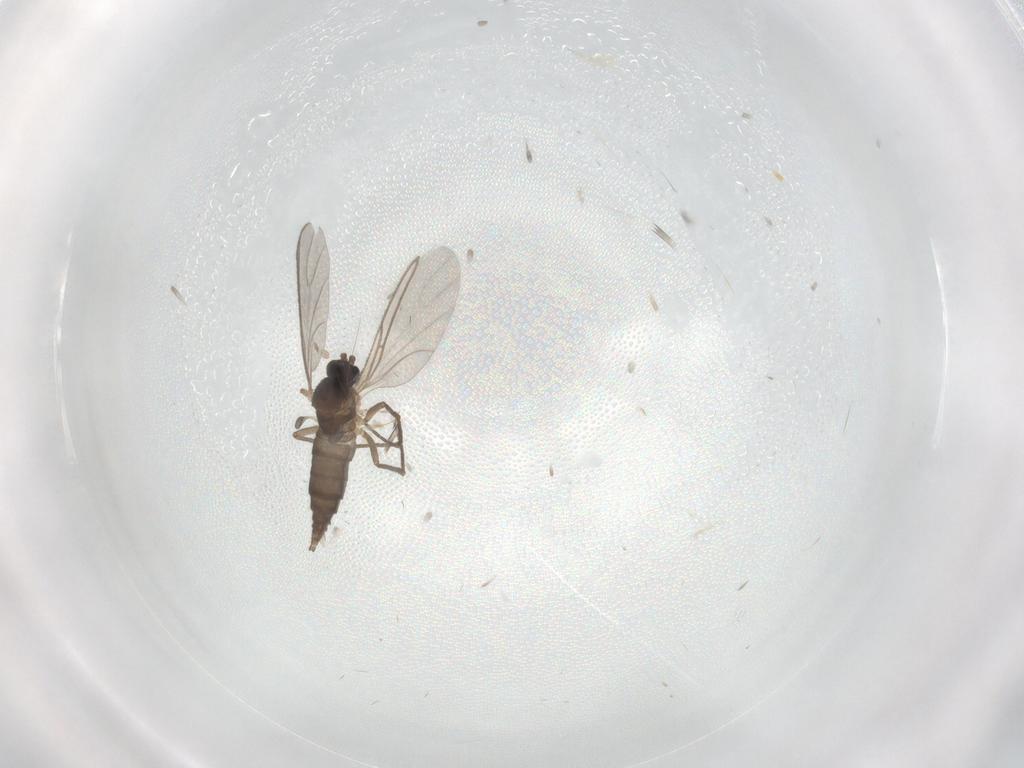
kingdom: Animalia
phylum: Arthropoda
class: Insecta
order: Diptera
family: Sciaridae
